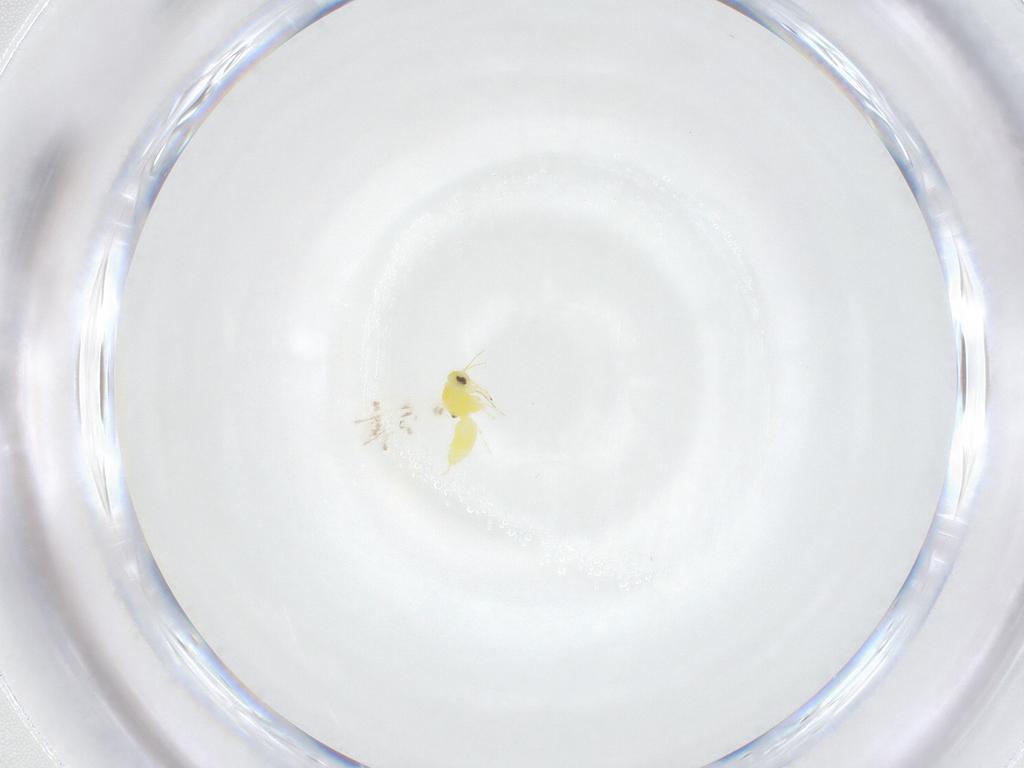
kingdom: Animalia
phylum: Arthropoda
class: Insecta
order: Hemiptera
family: Aleyrodidae
